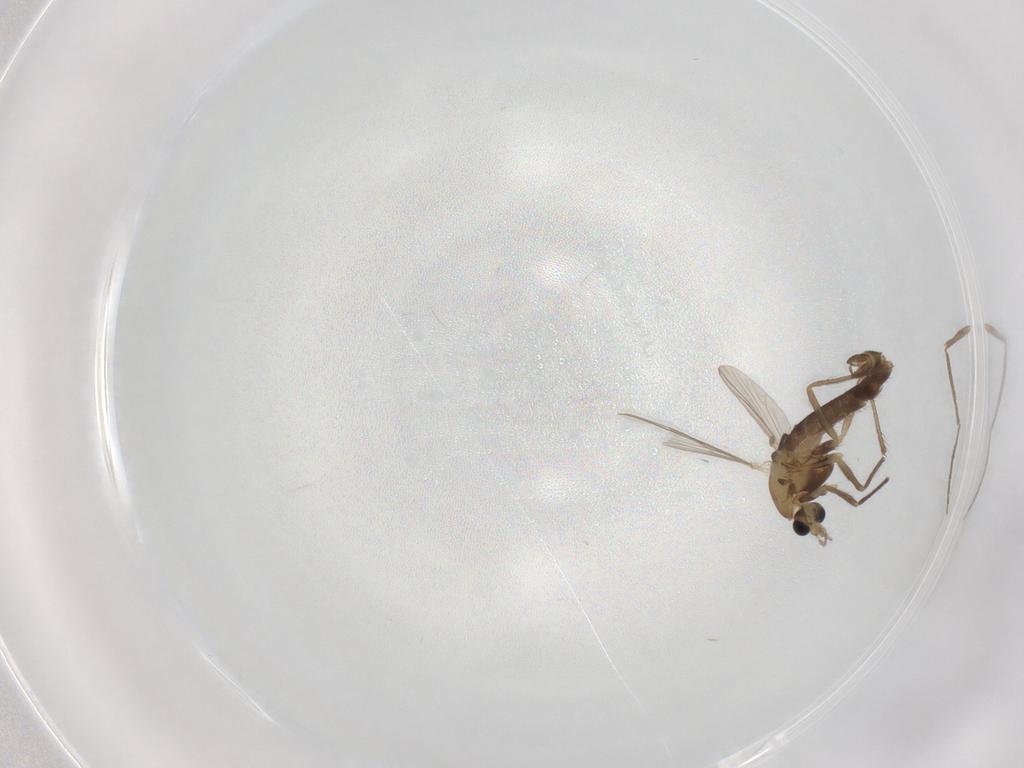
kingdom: Animalia
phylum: Arthropoda
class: Insecta
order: Diptera
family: Chironomidae
